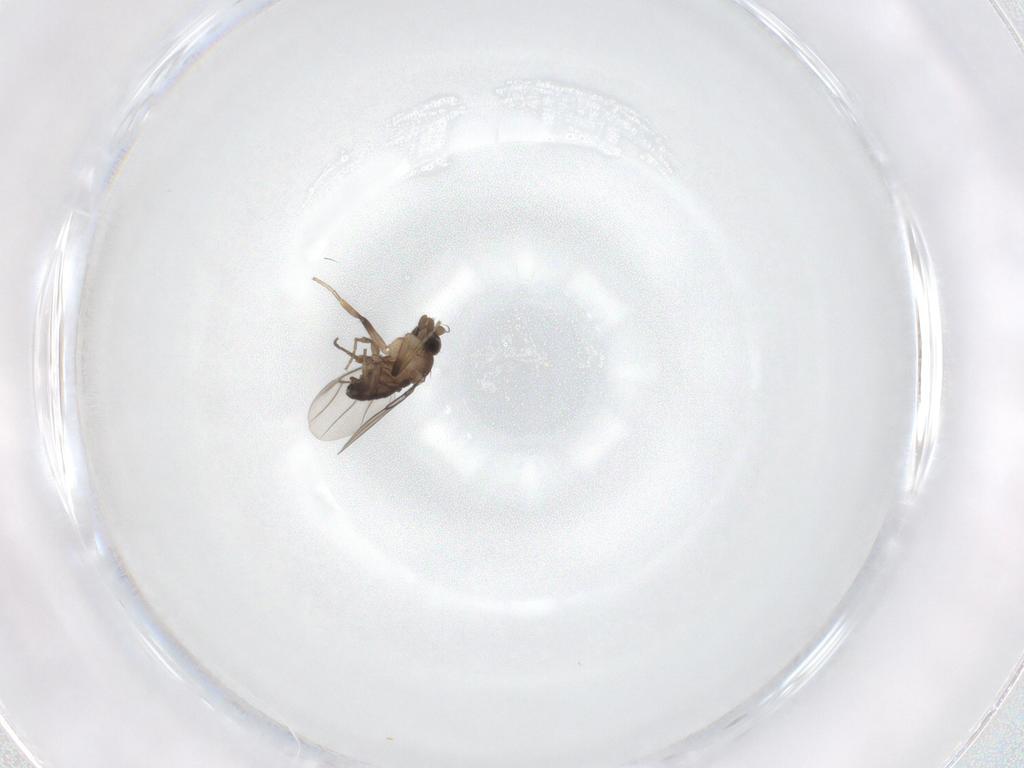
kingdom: Animalia
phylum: Arthropoda
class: Insecta
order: Diptera
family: Phoridae
